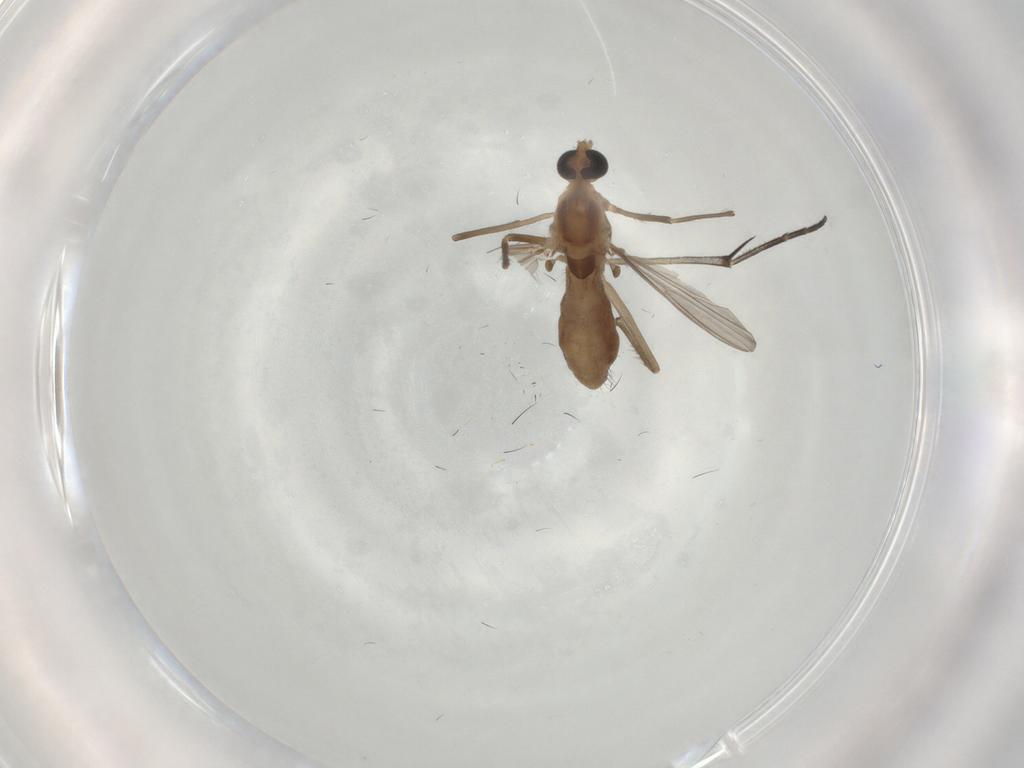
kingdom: Animalia
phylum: Arthropoda
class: Insecta
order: Diptera
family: Chironomidae
